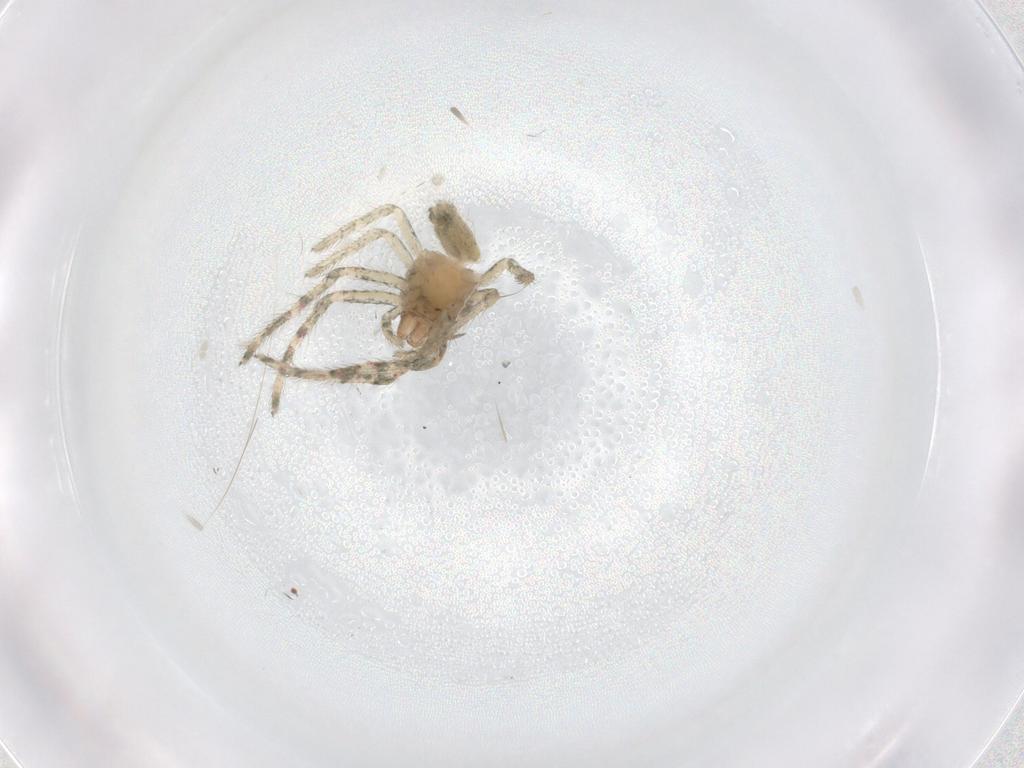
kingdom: Animalia
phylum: Arthropoda
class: Arachnida
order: Araneae
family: Thomisidae
